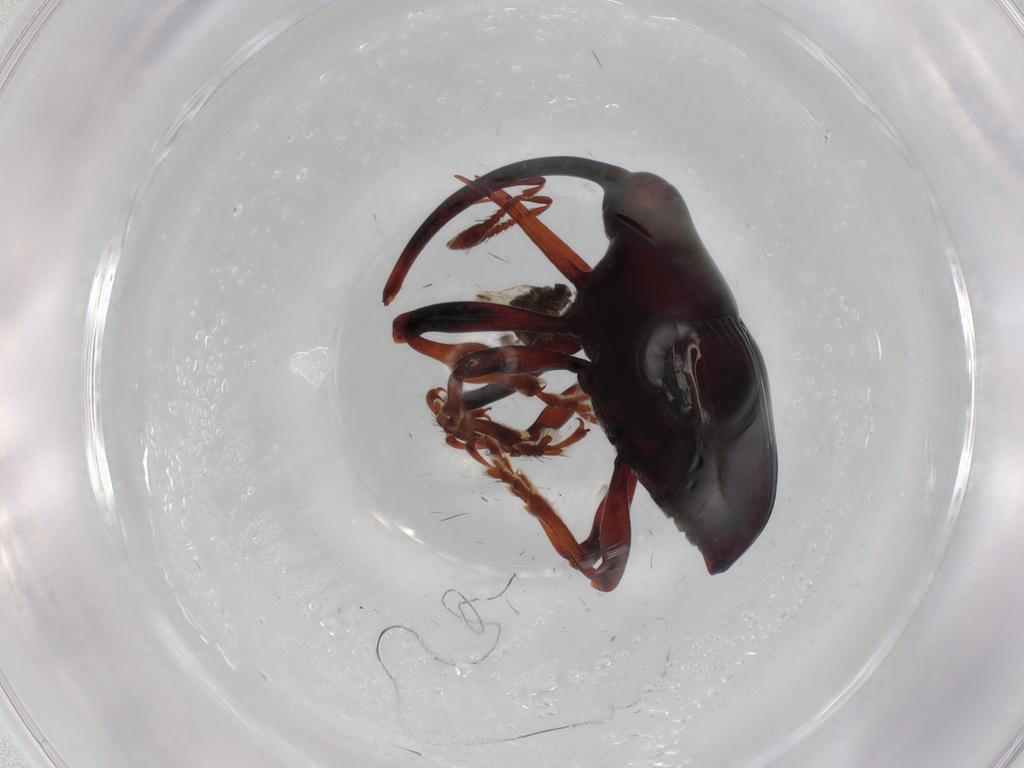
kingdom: Animalia
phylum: Arthropoda
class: Insecta
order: Coleoptera
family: Curculionidae
